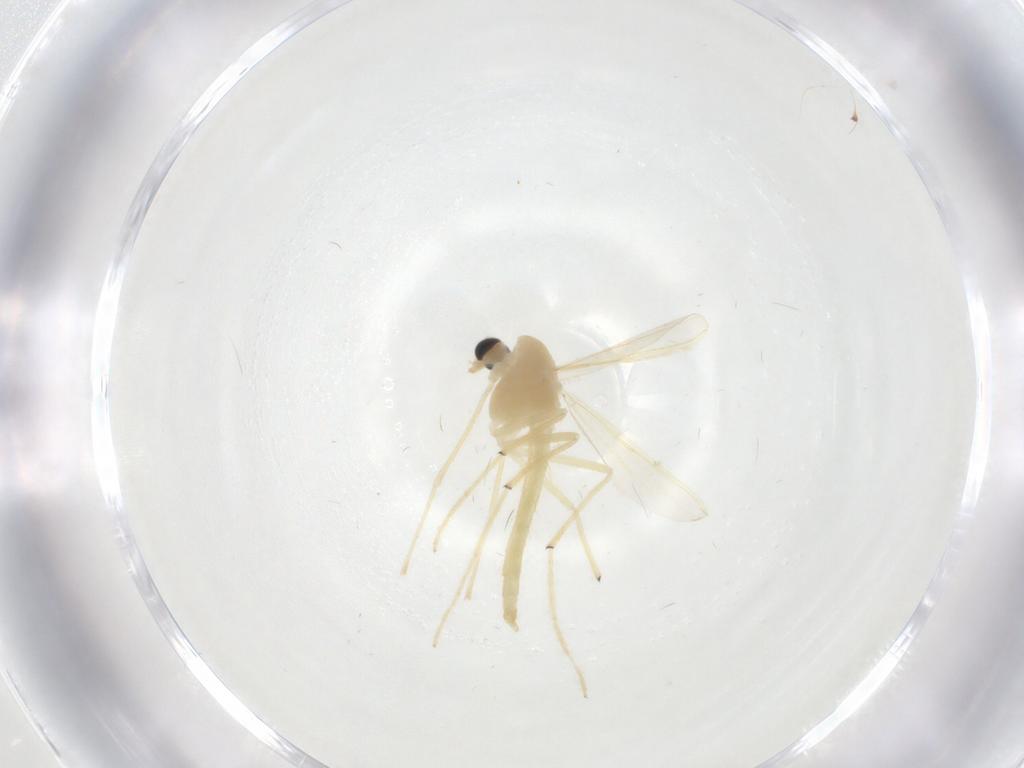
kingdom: Animalia
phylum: Arthropoda
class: Insecta
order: Diptera
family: Chironomidae
